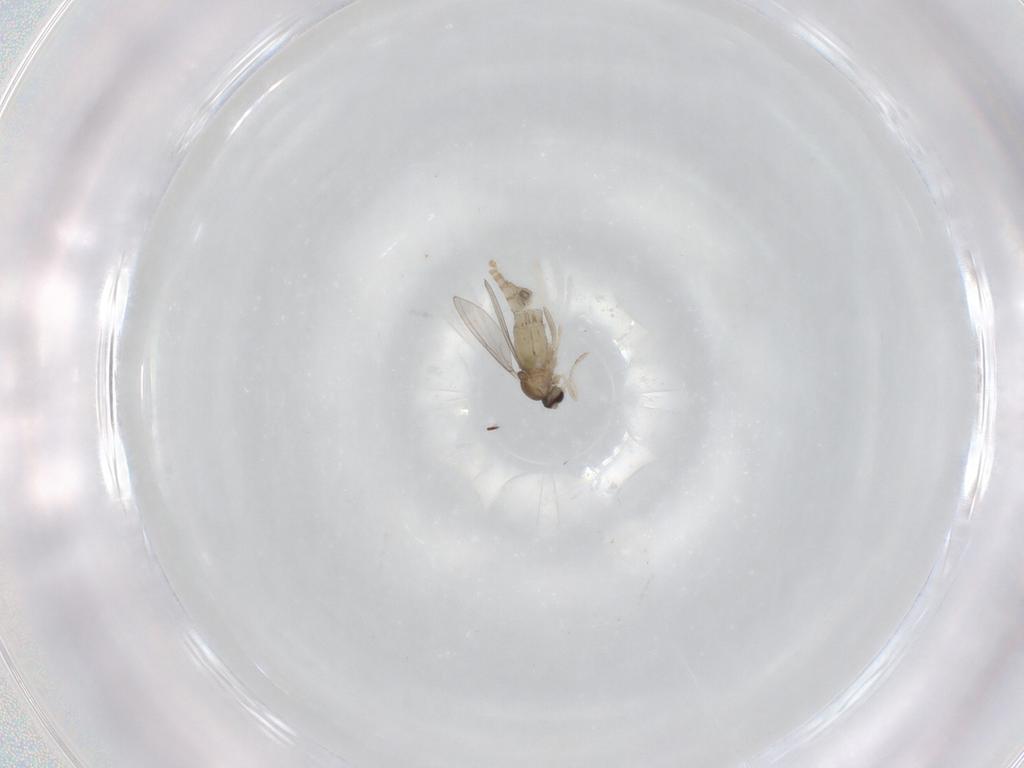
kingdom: Animalia
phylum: Arthropoda
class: Insecta
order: Diptera
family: Cecidomyiidae
